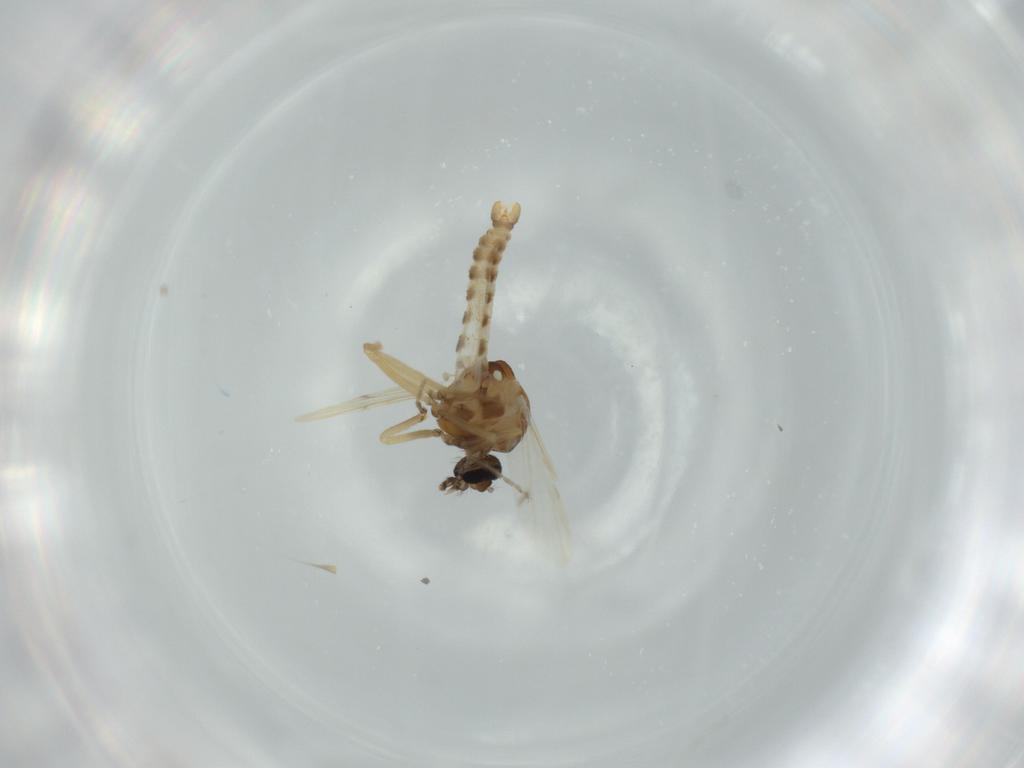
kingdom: Animalia
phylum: Arthropoda
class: Insecta
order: Diptera
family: Cecidomyiidae
